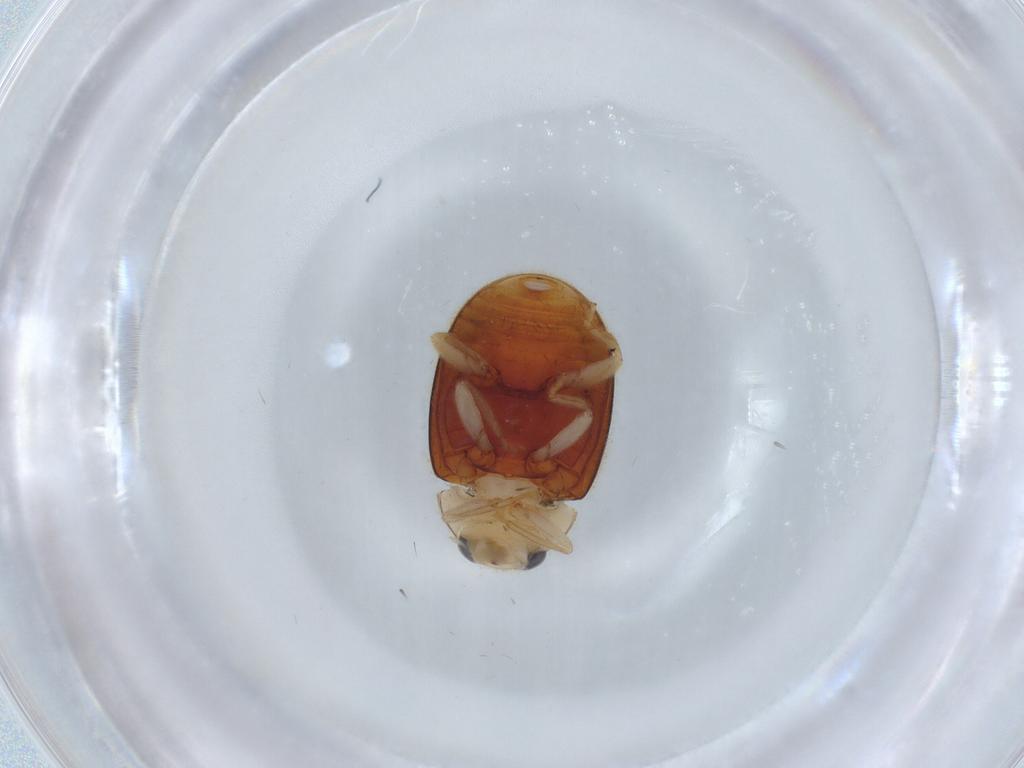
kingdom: Animalia
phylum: Arthropoda
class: Insecta
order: Coleoptera
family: Coccinellidae
